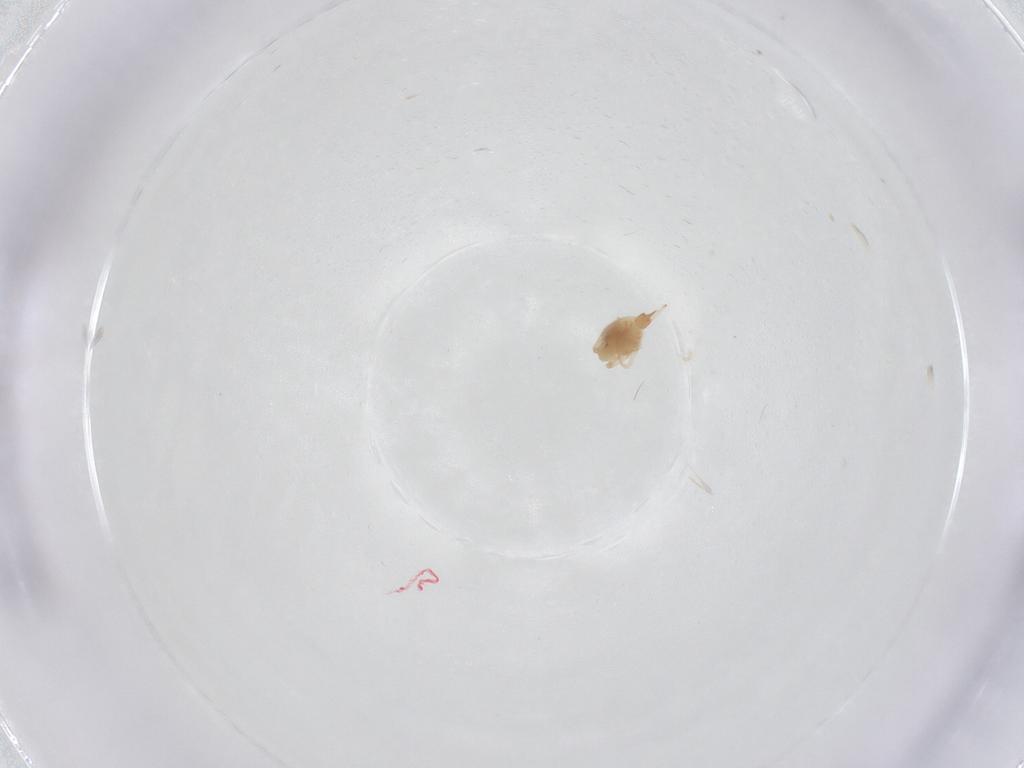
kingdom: Animalia
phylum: Arthropoda
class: Arachnida
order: Trombidiformes
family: Cunaxidae
